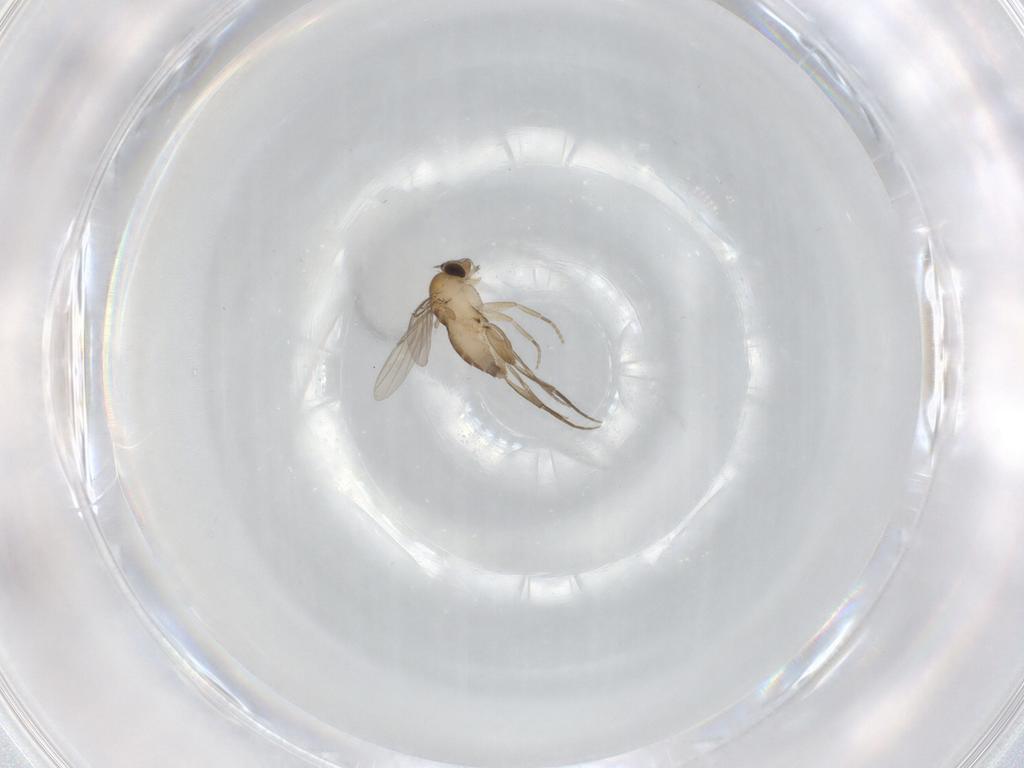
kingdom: Animalia
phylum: Arthropoda
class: Insecta
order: Diptera
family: Phoridae
